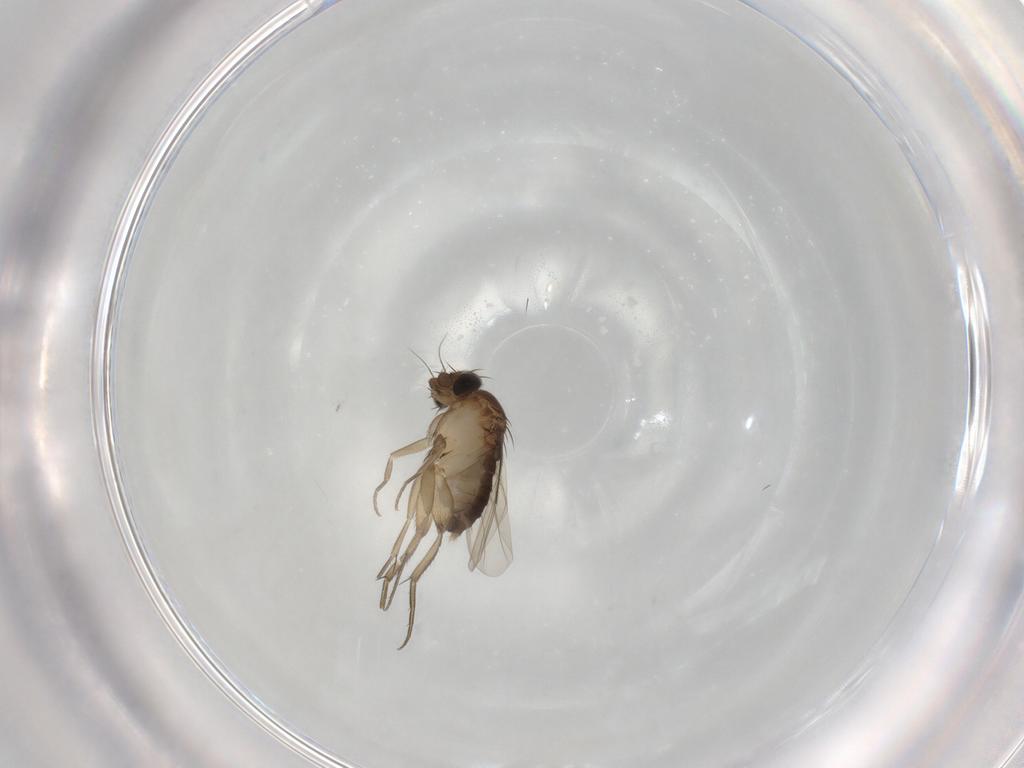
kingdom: Animalia
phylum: Arthropoda
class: Insecta
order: Diptera
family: Phoridae
